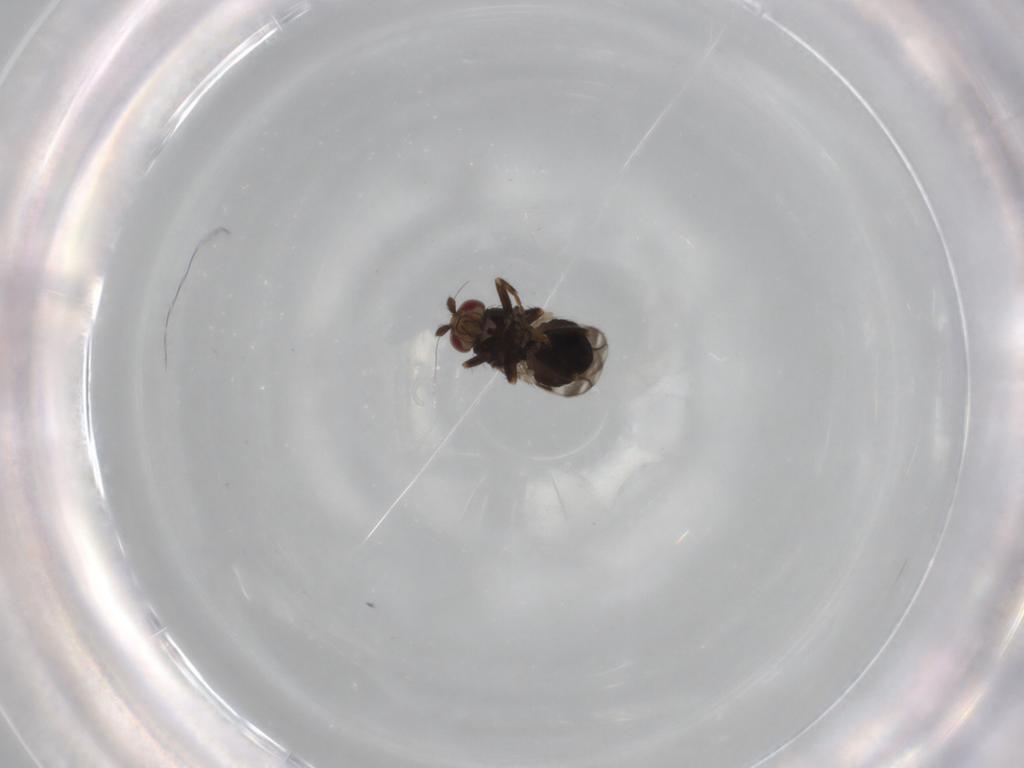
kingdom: Animalia
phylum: Arthropoda
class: Insecta
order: Diptera
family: Sphaeroceridae
